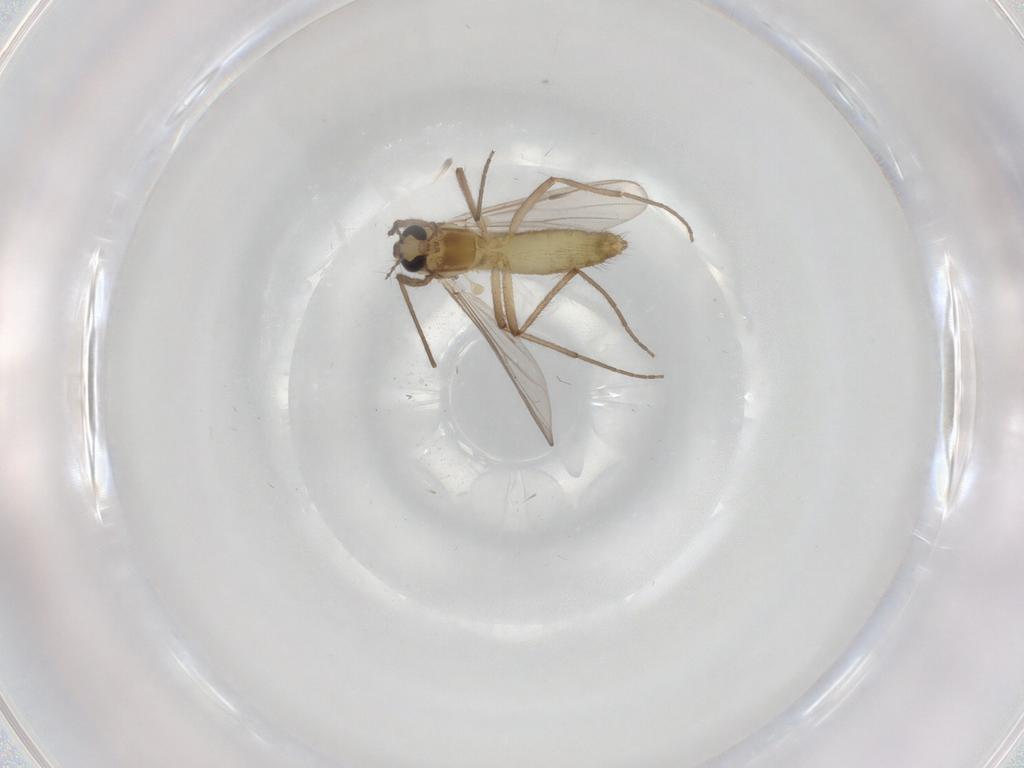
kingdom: Animalia
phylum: Arthropoda
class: Insecta
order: Diptera
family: Chironomidae
